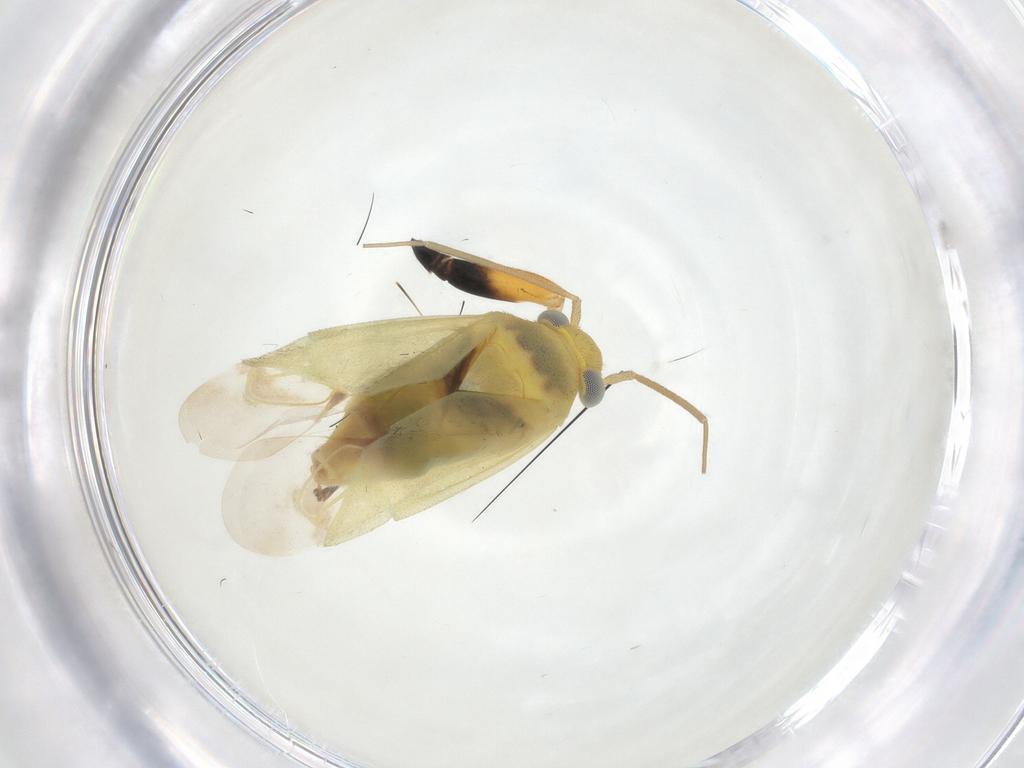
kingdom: Animalia
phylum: Arthropoda
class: Insecta
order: Hemiptera
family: Miridae
